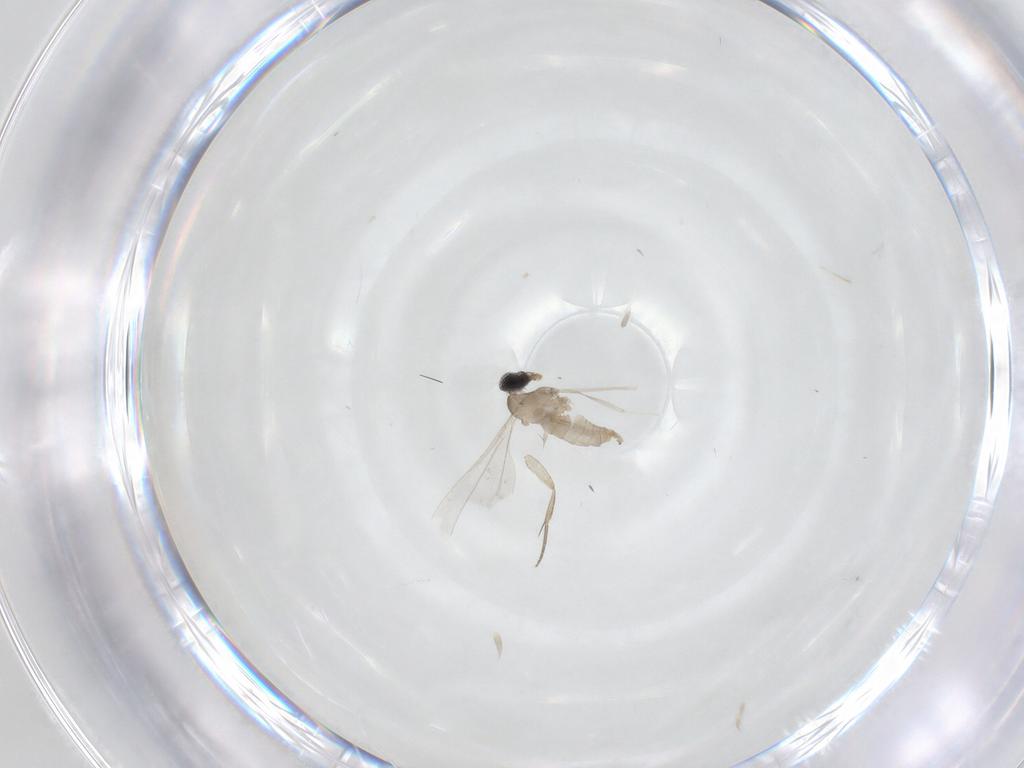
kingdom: Animalia
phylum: Arthropoda
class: Insecta
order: Diptera
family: Cecidomyiidae
